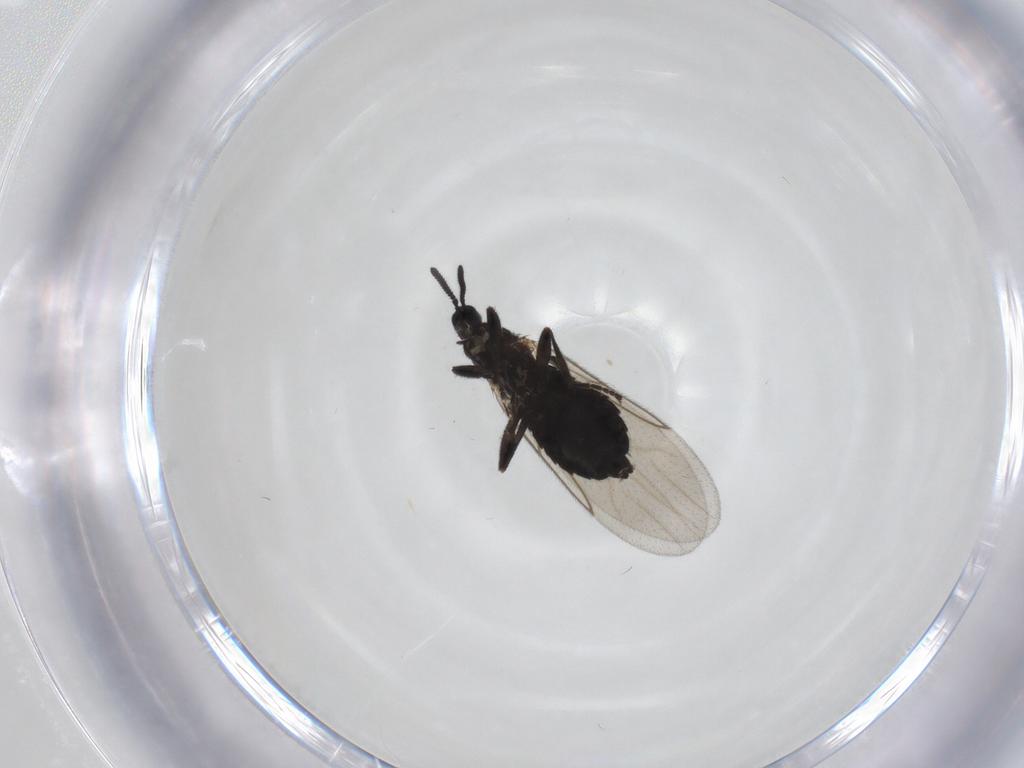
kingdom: Animalia
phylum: Arthropoda
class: Insecta
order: Diptera
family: Scatopsidae
